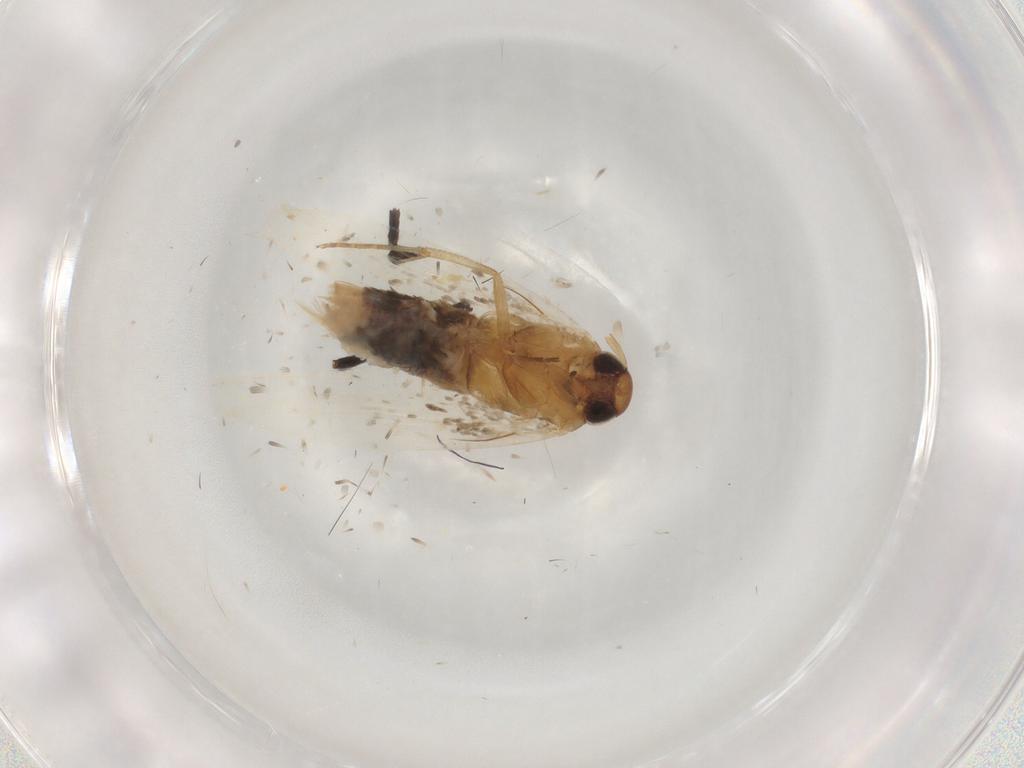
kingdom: Animalia
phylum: Arthropoda
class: Insecta
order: Lepidoptera
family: Pyralidae
